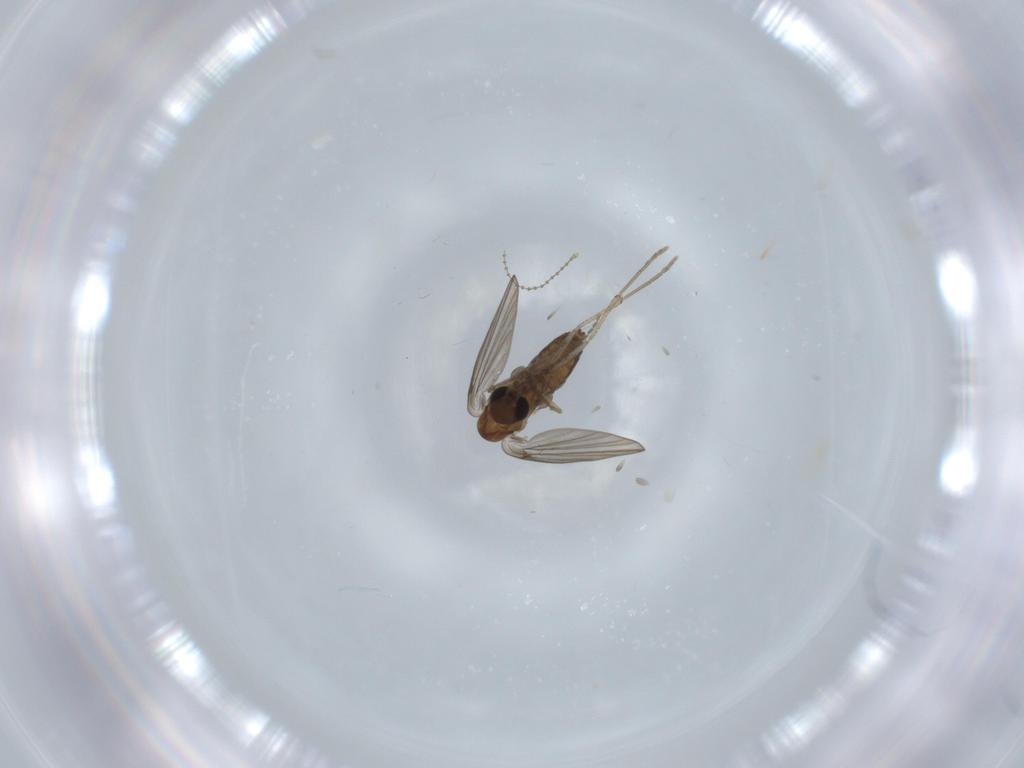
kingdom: Animalia
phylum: Arthropoda
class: Insecta
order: Diptera
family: Psychodidae
